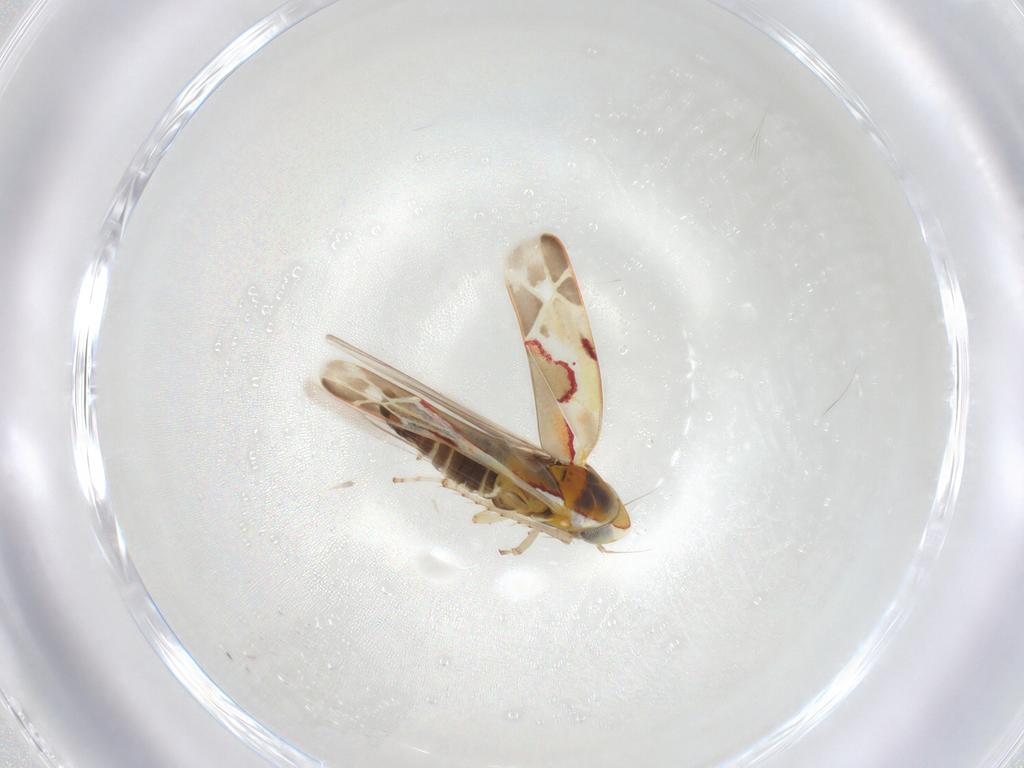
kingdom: Animalia
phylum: Arthropoda
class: Insecta
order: Hemiptera
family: Cicadellidae
